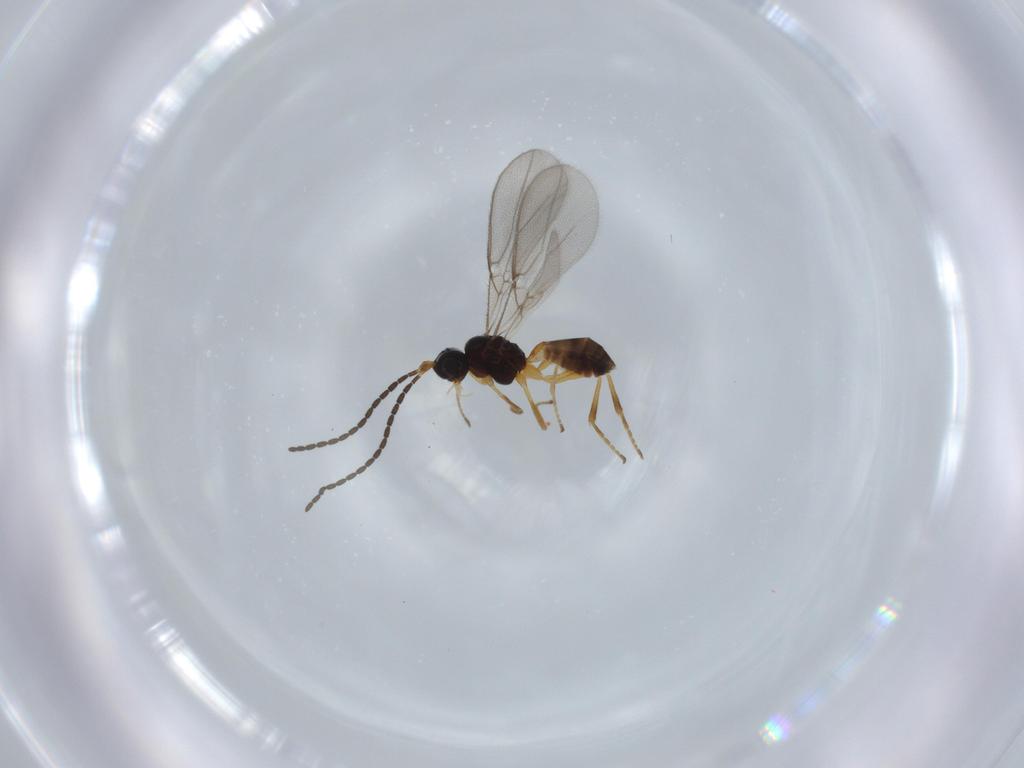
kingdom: Animalia
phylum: Arthropoda
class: Insecta
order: Hymenoptera
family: Braconidae
